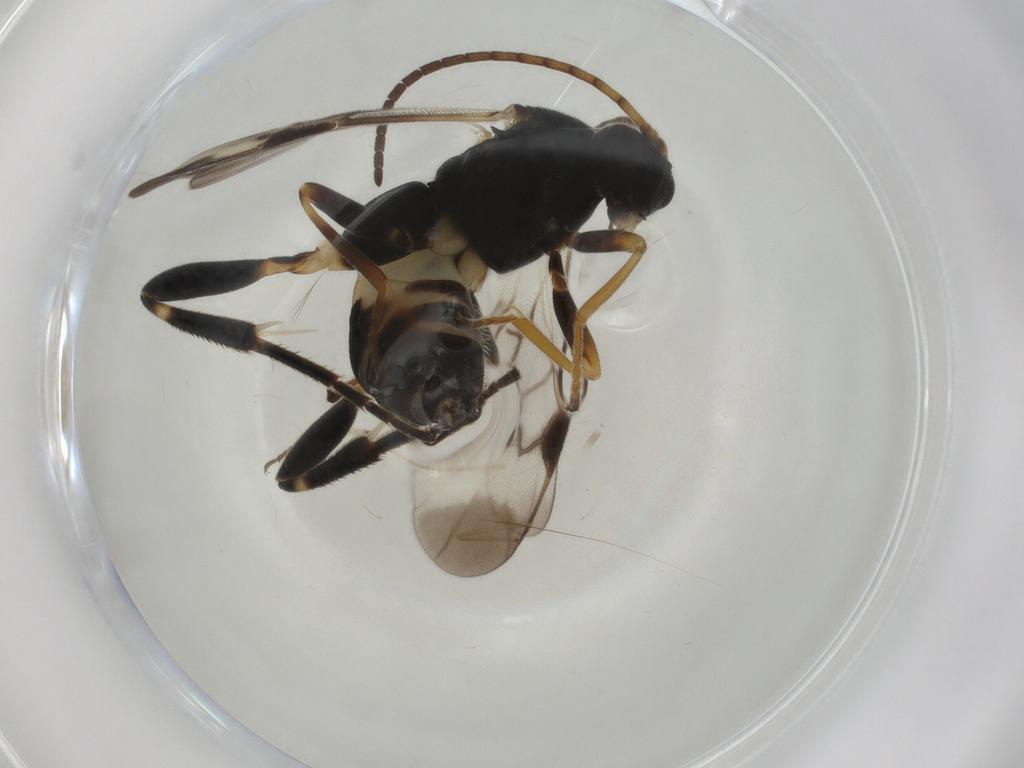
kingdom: Animalia
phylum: Arthropoda
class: Insecta
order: Hymenoptera
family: Braconidae
